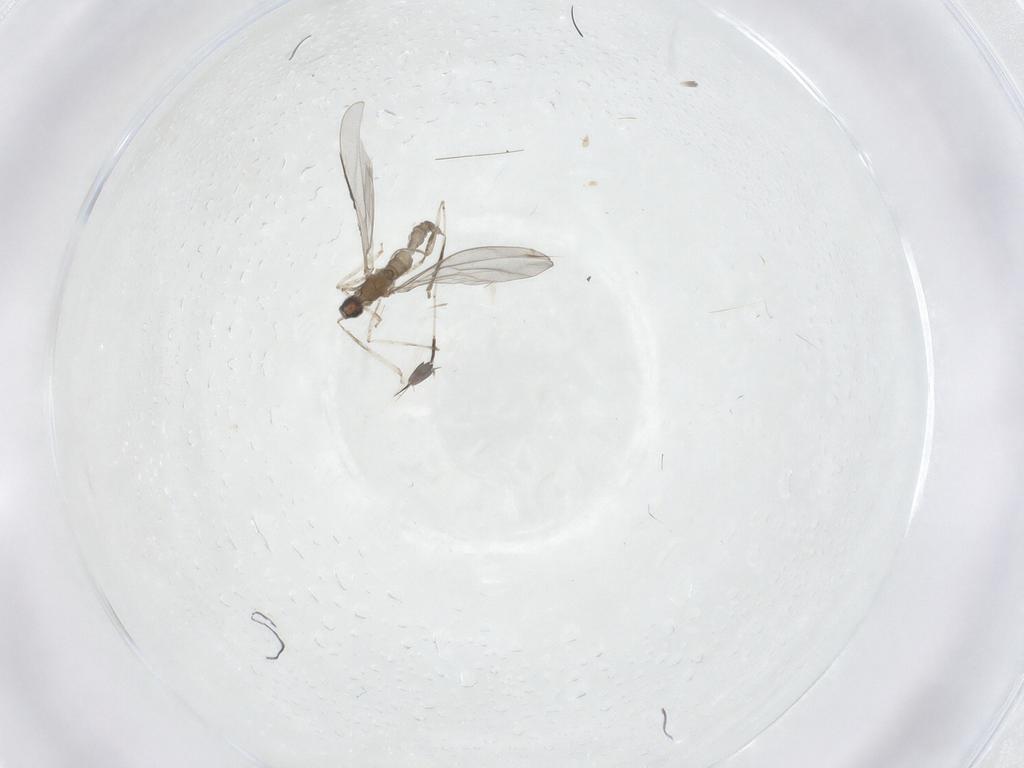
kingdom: Animalia
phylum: Arthropoda
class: Insecta
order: Diptera
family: Cecidomyiidae
